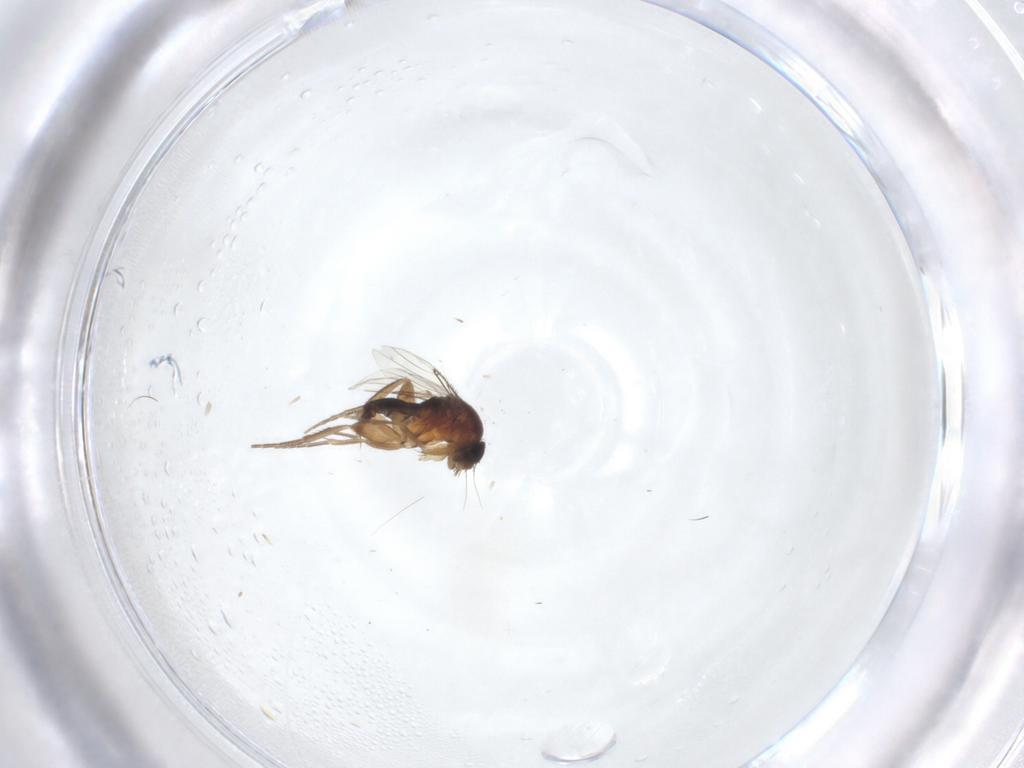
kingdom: Animalia
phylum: Arthropoda
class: Insecta
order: Diptera
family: Phoridae
